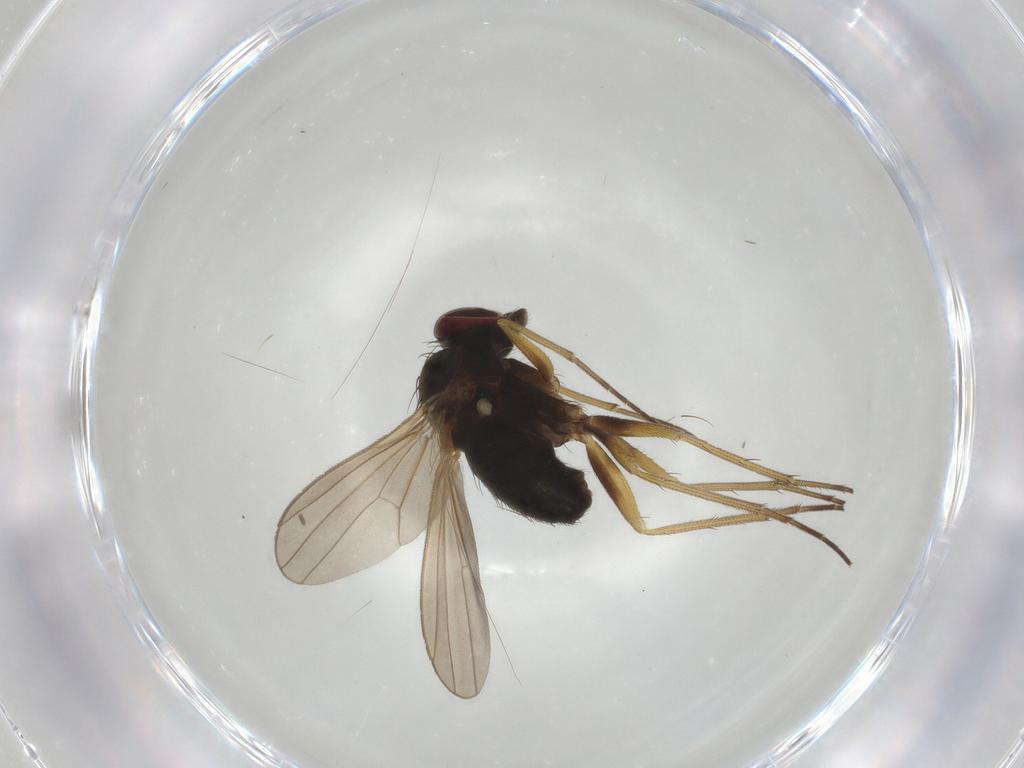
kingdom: Animalia
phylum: Arthropoda
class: Insecta
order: Diptera
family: Dolichopodidae
